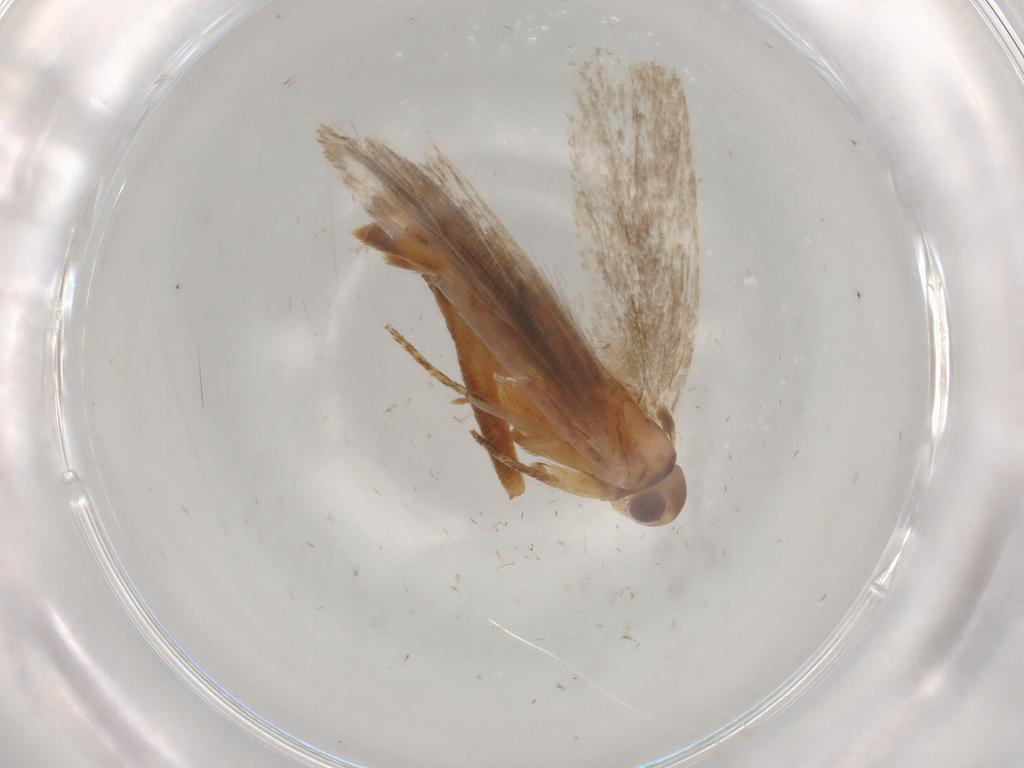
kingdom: Animalia
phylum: Arthropoda
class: Insecta
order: Lepidoptera
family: Gelechiidae
